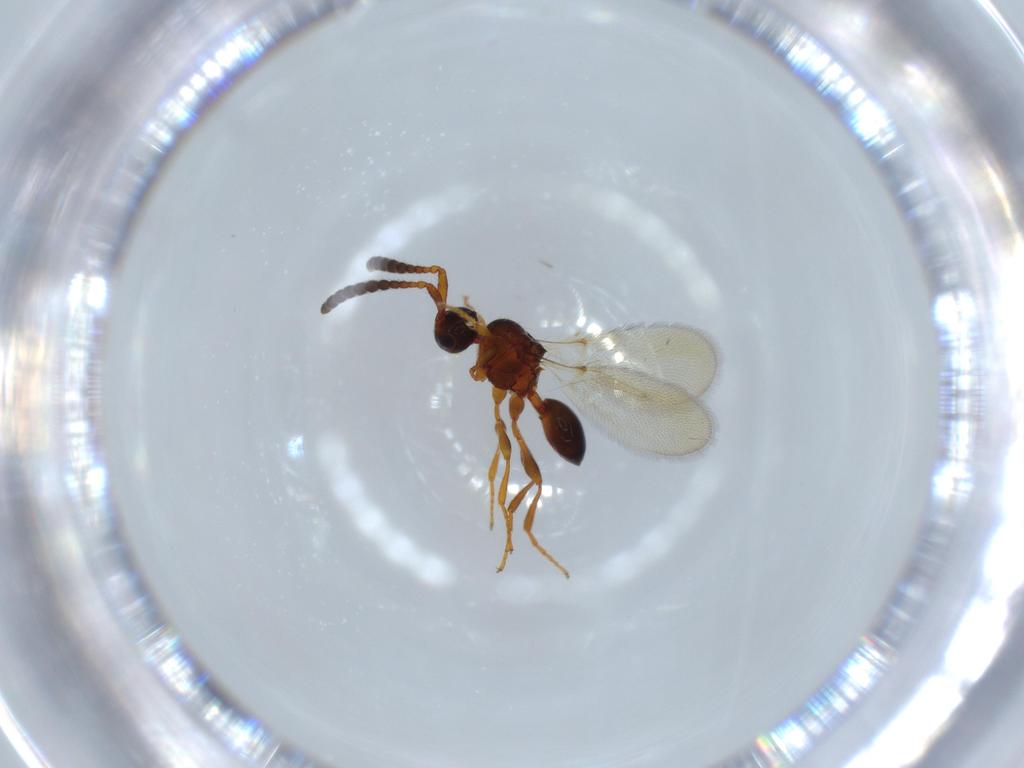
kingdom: Animalia
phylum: Arthropoda
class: Insecta
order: Hymenoptera
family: Diapriidae
